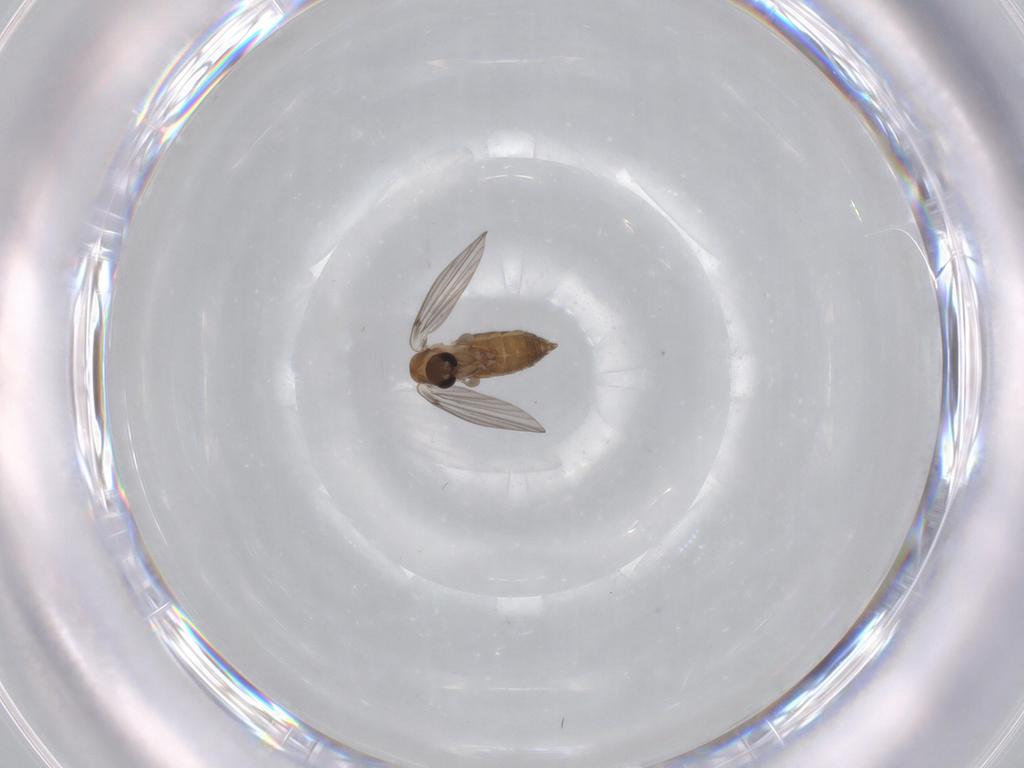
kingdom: Animalia
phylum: Arthropoda
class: Insecta
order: Diptera
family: Psychodidae
